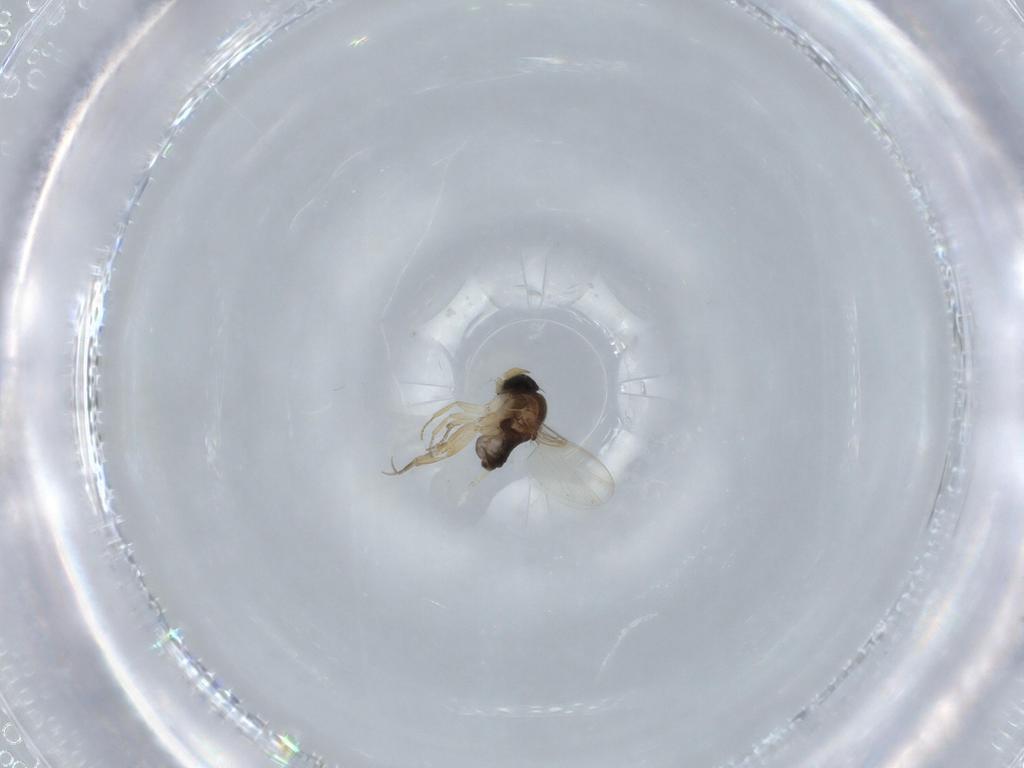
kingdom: Animalia
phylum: Arthropoda
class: Insecta
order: Diptera
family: Phoridae
